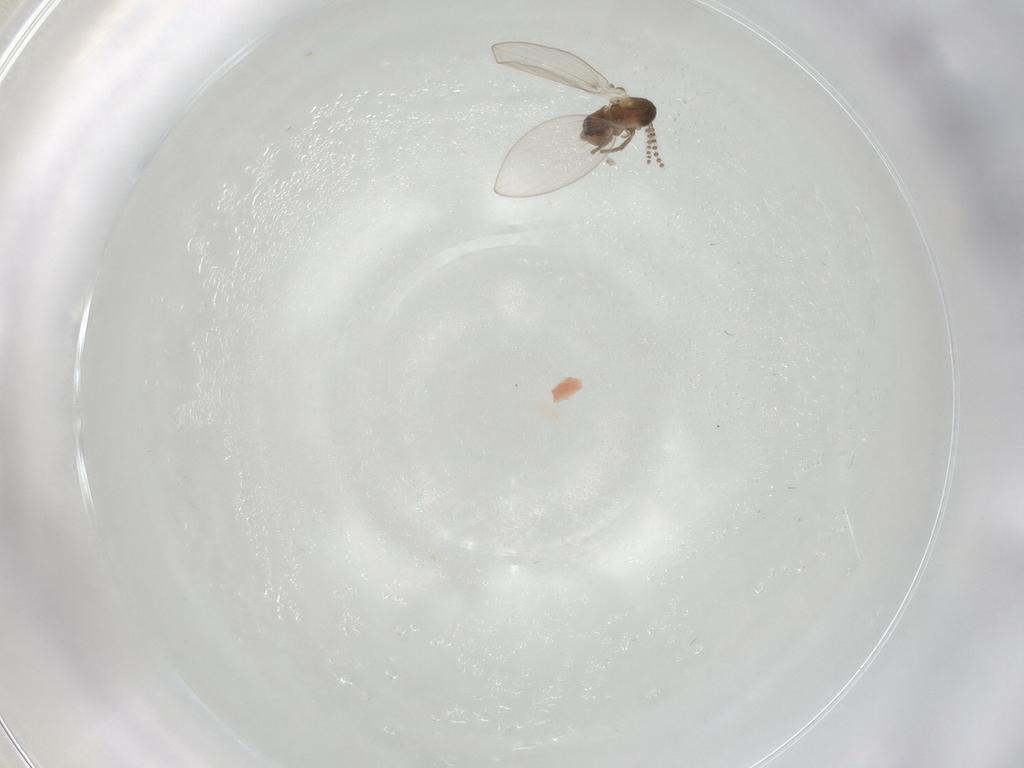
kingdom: Animalia
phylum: Arthropoda
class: Insecta
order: Diptera
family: Psychodidae
